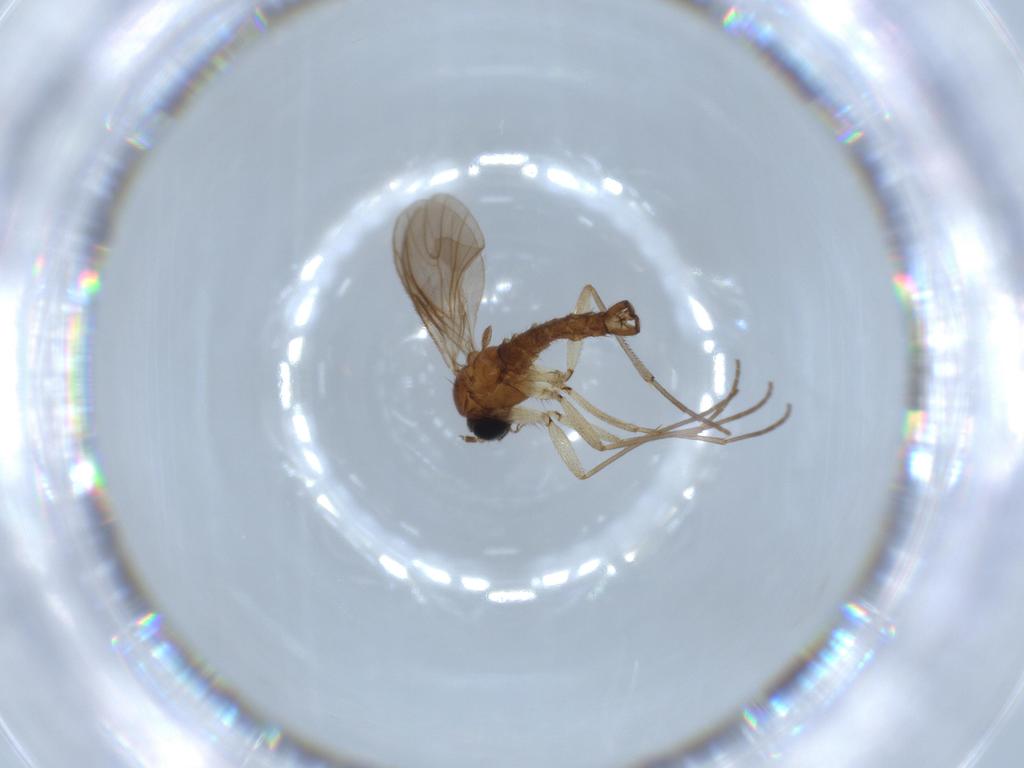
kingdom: Animalia
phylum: Arthropoda
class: Insecta
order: Diptera
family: Sciaridae
